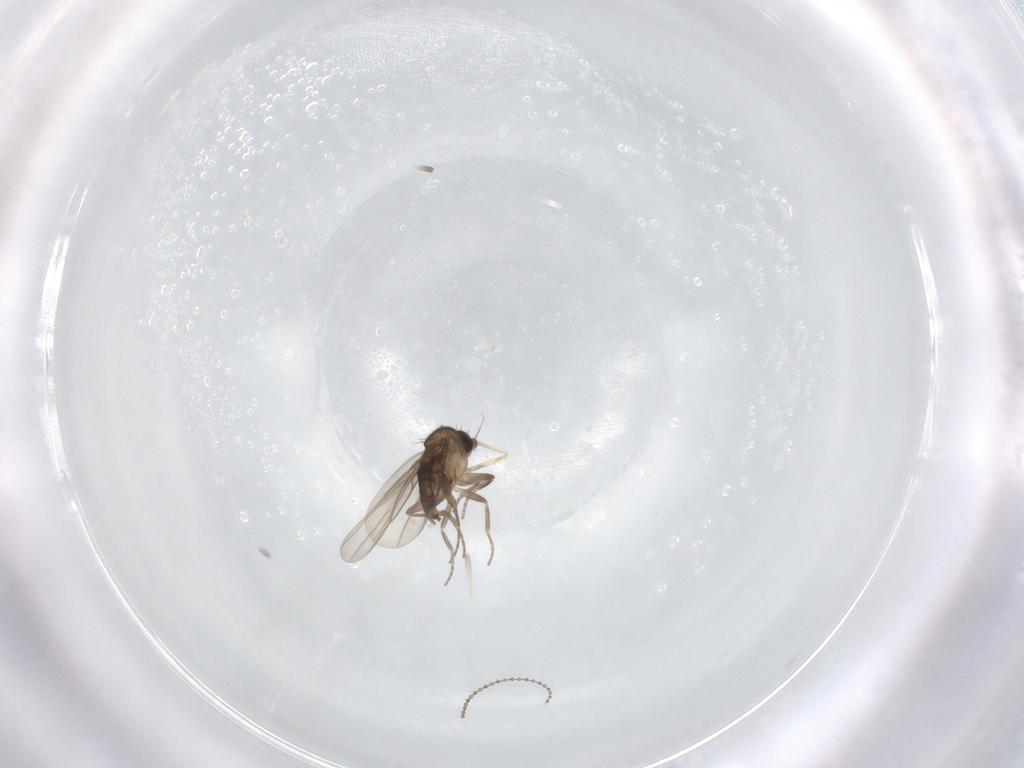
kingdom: Animalia
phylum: Arthropoda
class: Insecta
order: Diptera
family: Cecidomyiidae
